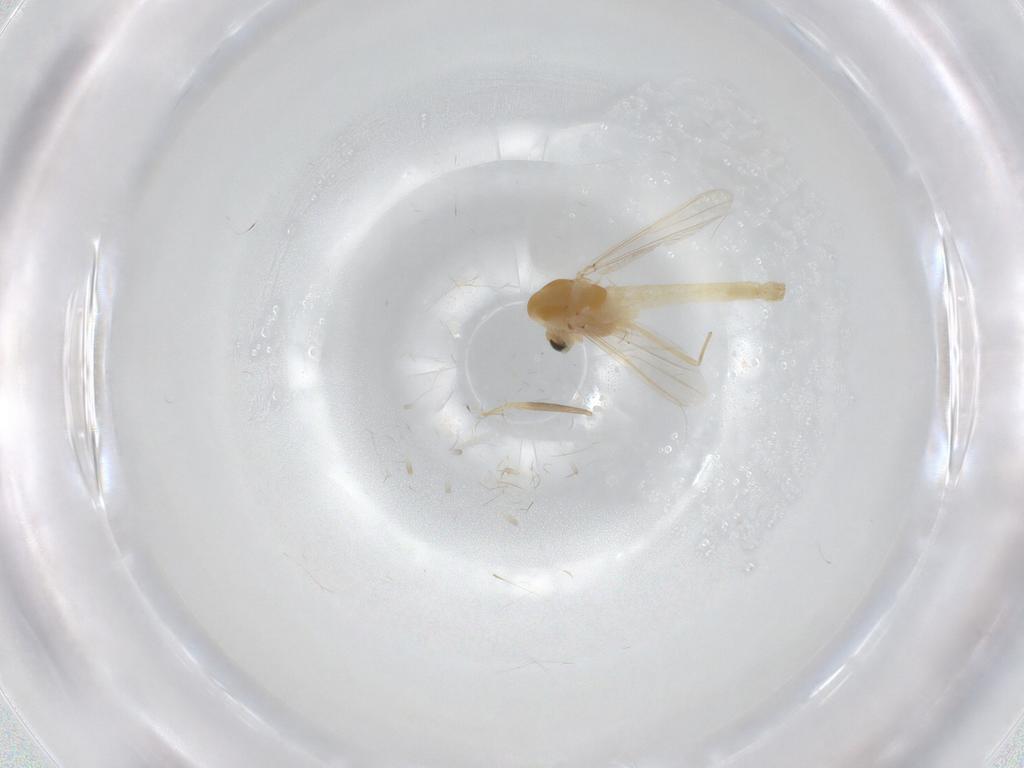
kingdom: Animalia
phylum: Arthropoda
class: Insecta
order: Diptera
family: Chironomidae
